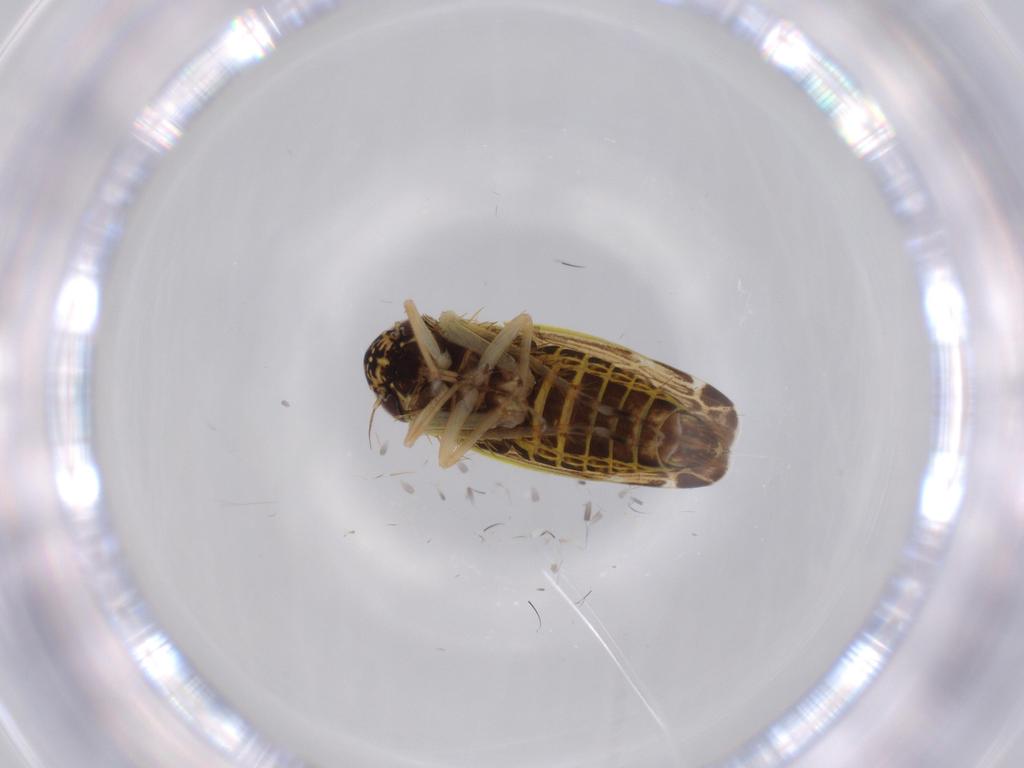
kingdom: Animalia
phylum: Arthropoda
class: Insecta
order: Hemiptera
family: Cicadellidae
